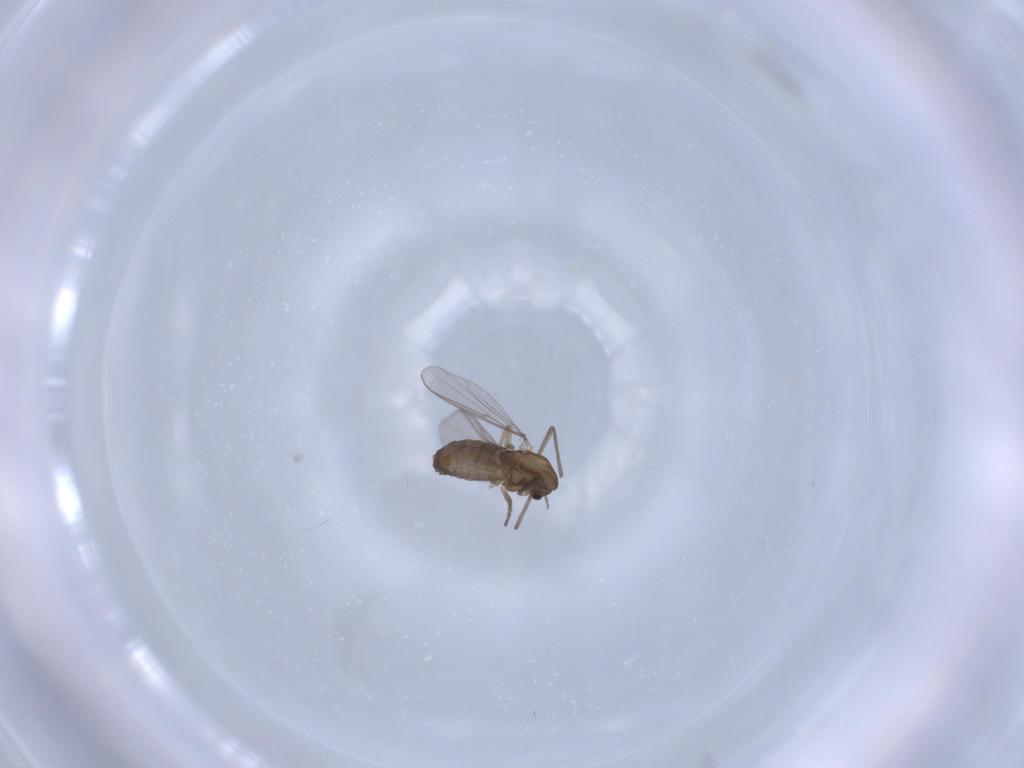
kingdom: Animalia
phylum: Arthropoda
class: Insecta
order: Diptera
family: Chironomidae
